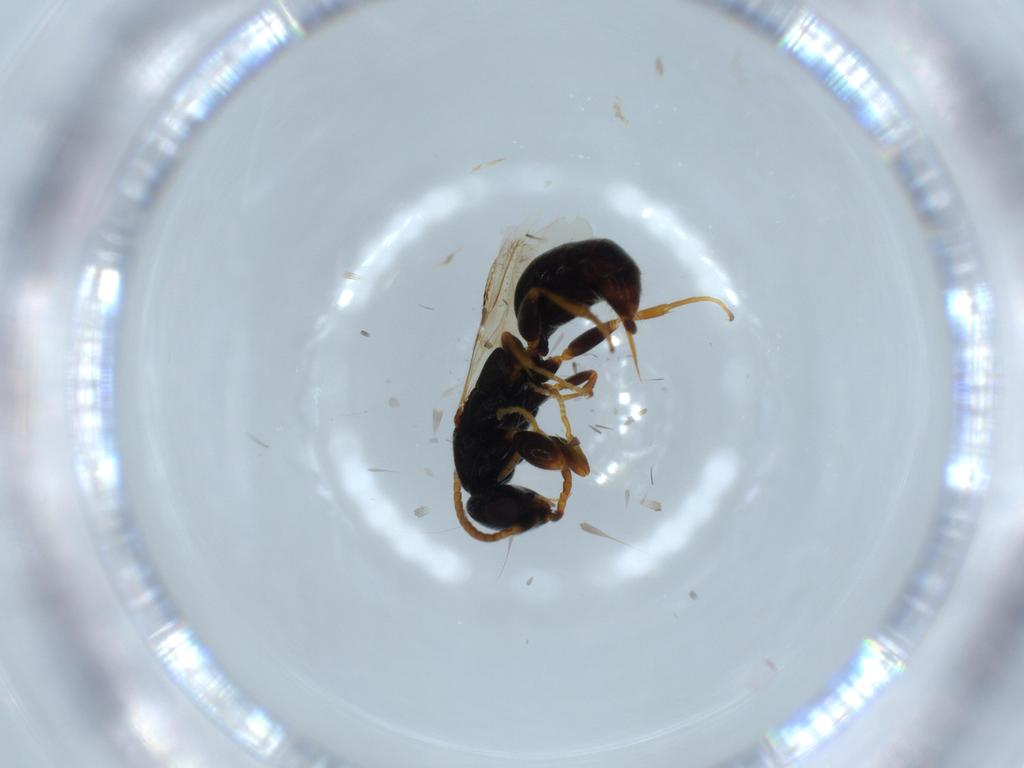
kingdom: Animalia
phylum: Arthropoda
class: Insecta
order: Hymenoptera
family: Bethylidae
